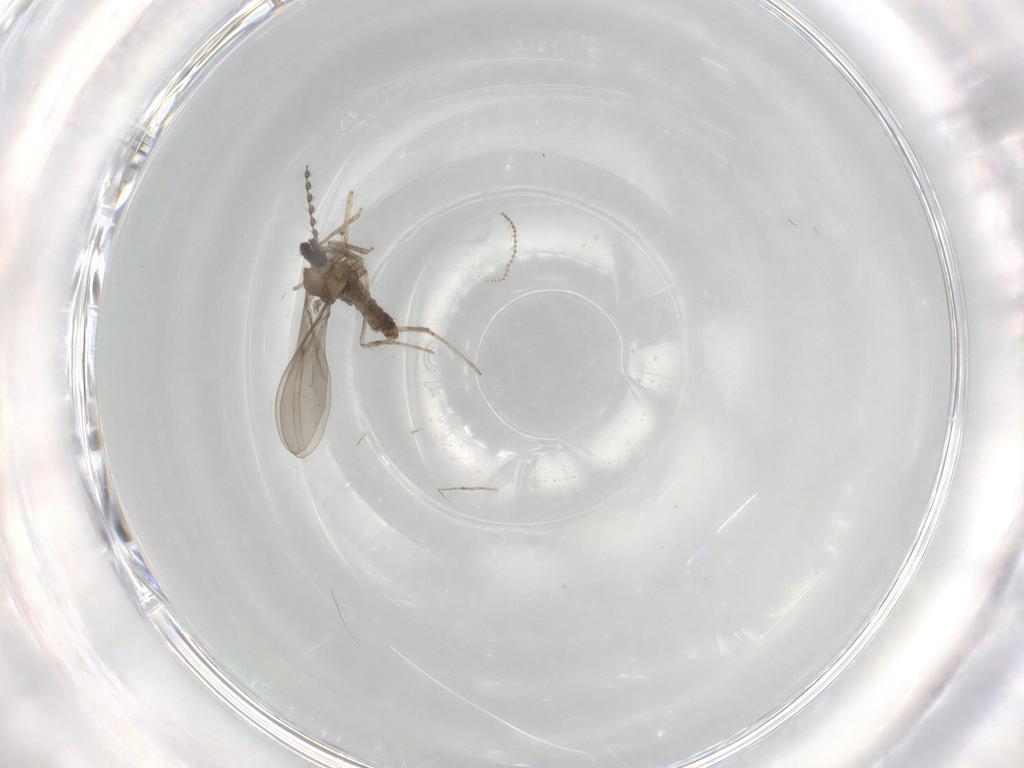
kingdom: Animalia
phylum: Arthropoda
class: Insecta
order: Diptera
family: Cecidomyiidae
